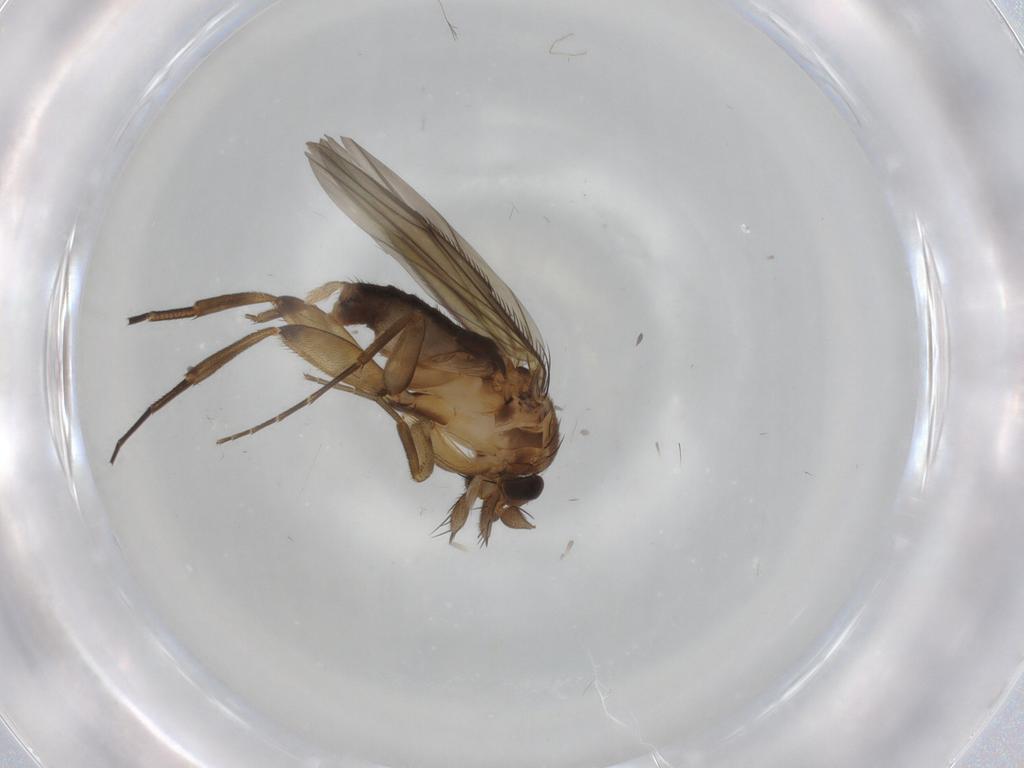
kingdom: Animalia
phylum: Arthropoda
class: Insecta
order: Diptera
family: Phoridae
